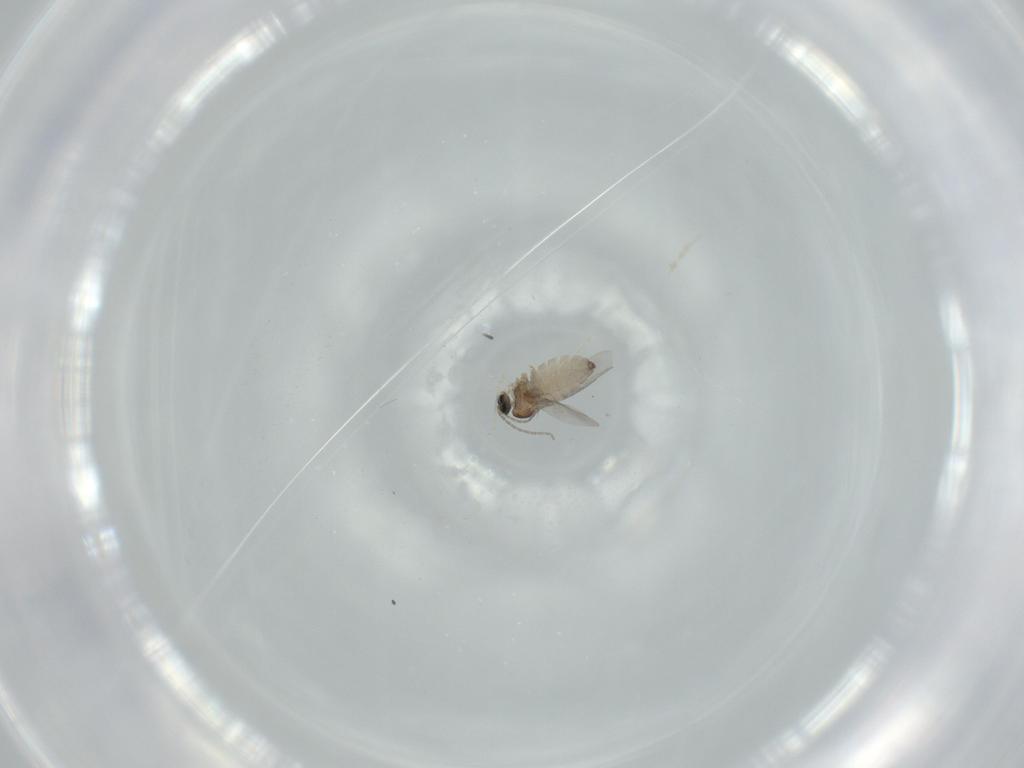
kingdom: Animalia
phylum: Arthropoda
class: Insecta
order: Diptera
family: Cecidomyiidae
